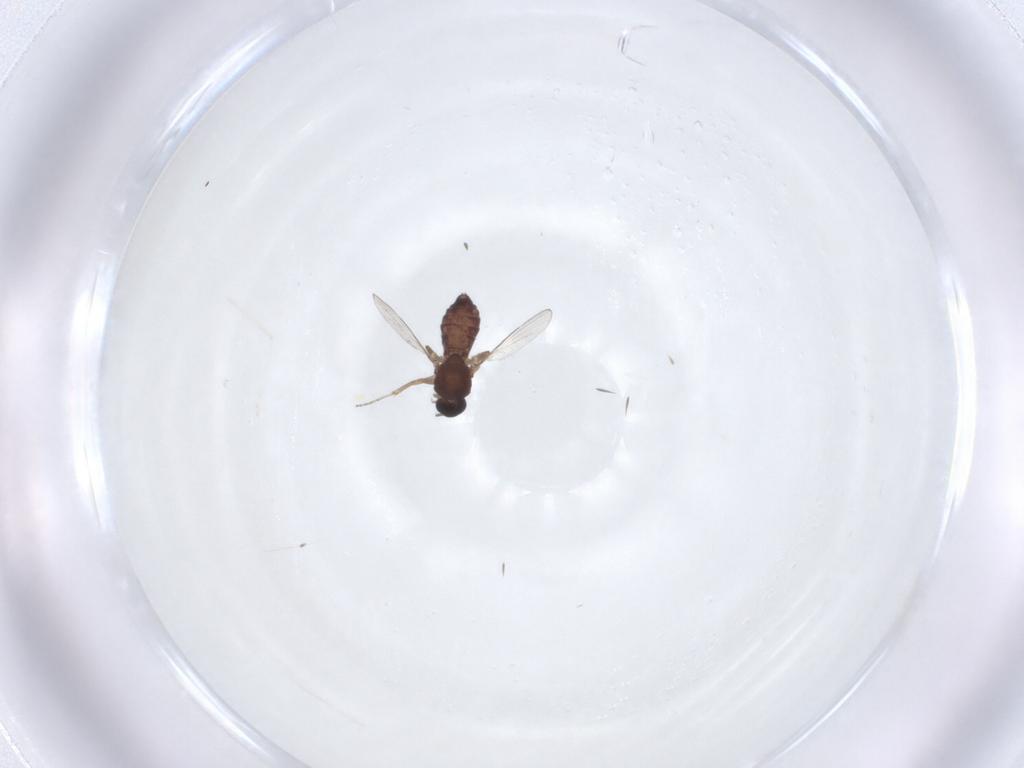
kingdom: Animalia
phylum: Arthropoda
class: Insecta
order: Diptera
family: Cecidomyiidae
